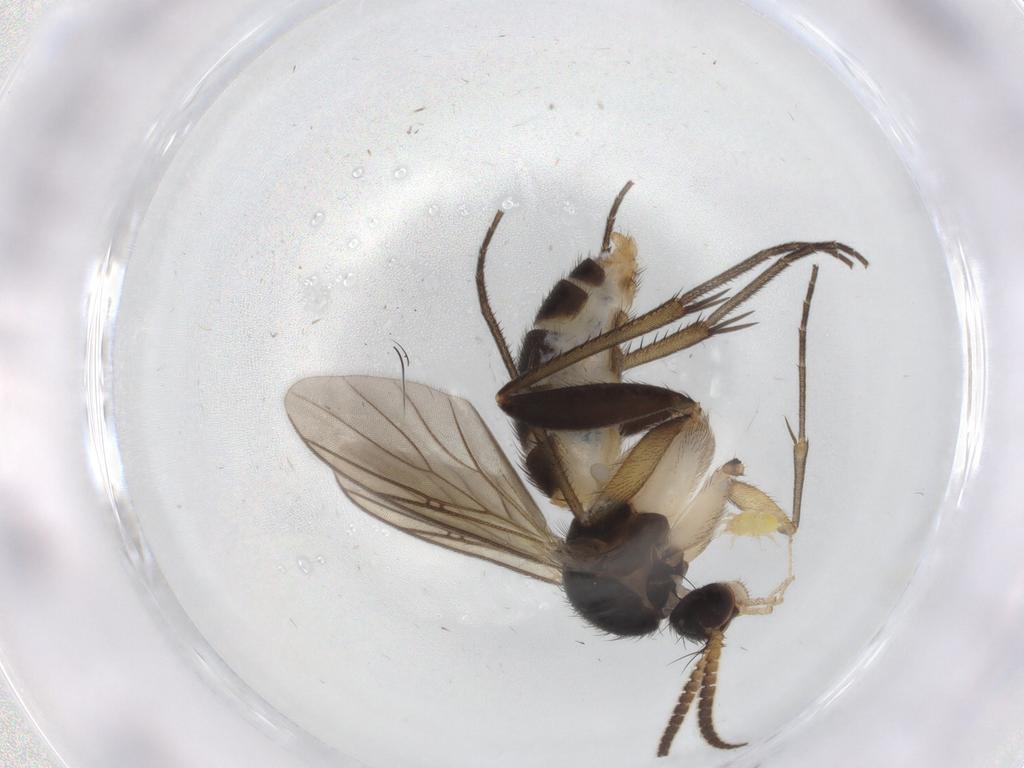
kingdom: Animalia
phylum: Arthropoda
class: Insecta
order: Diptera
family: Mycetophilidae
